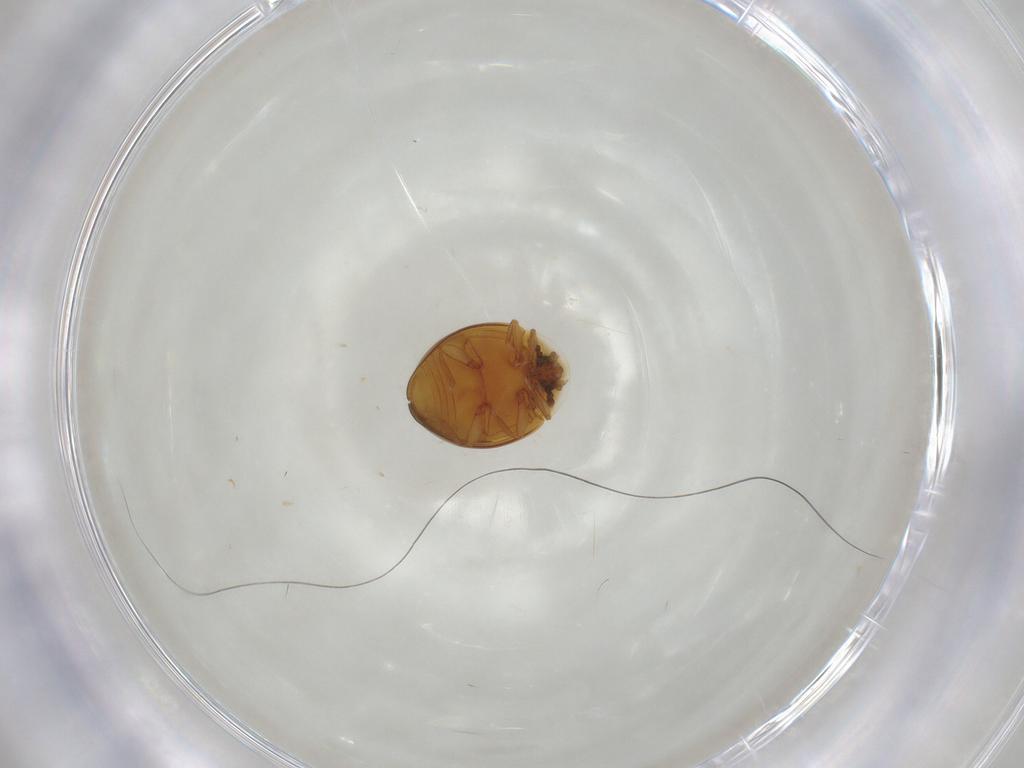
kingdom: Animalia
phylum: Arthropoda
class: Insecta
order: Coleoptera
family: Corylophidae
